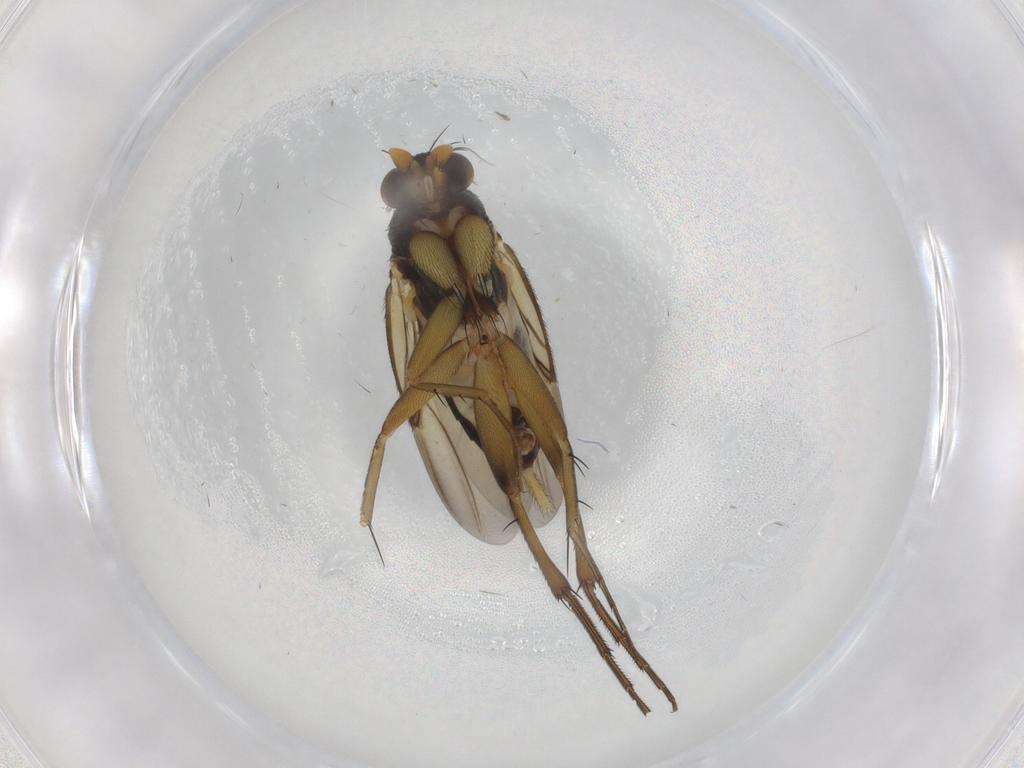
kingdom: Animalia
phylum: Arthropoda
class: Insecta
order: Diptera
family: Phoridae
